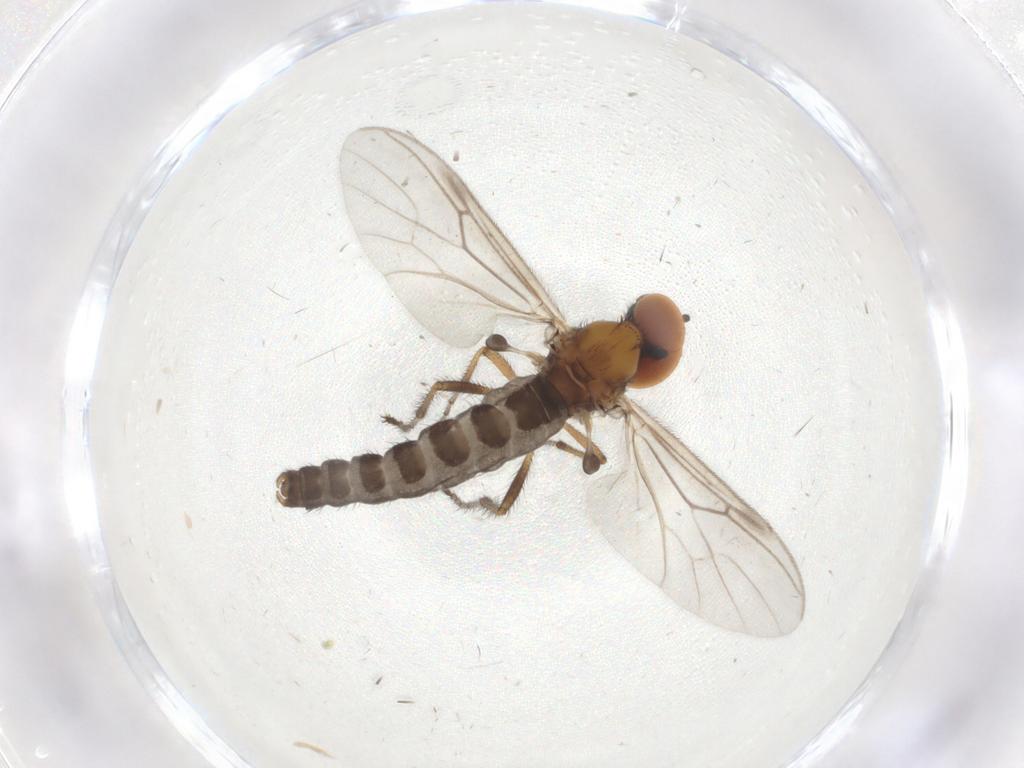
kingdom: Animalia
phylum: Arthropoda
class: Insecta
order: Diptera
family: Bibionidae
